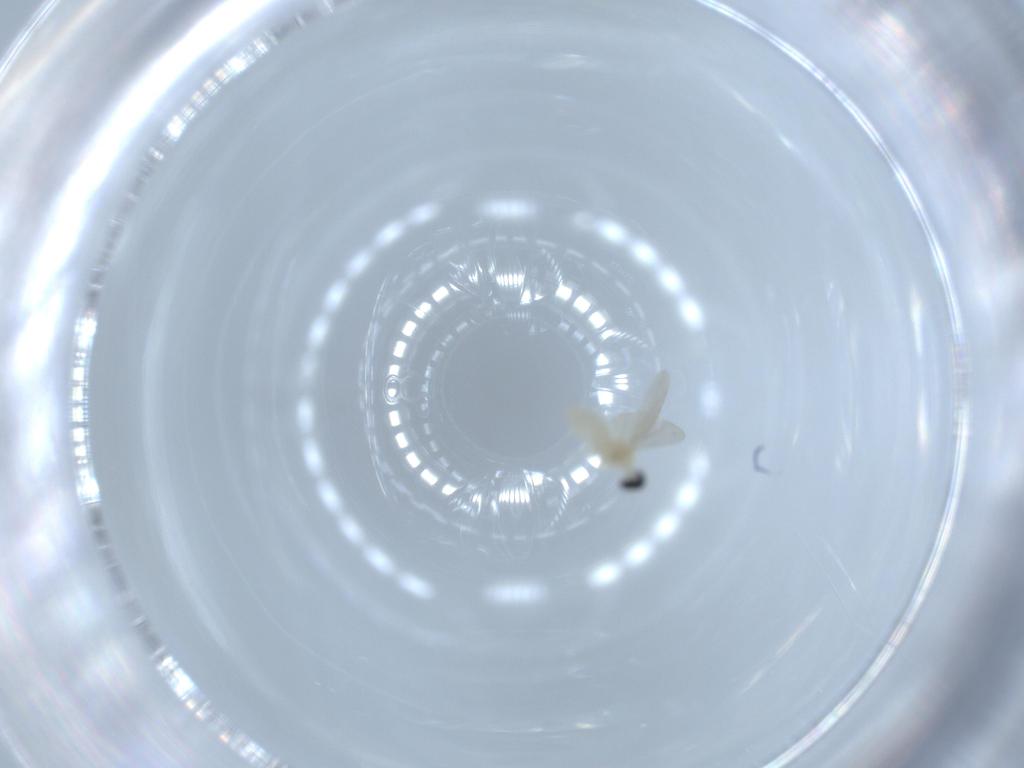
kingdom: Animalia
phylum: Arthropoda
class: Insecta
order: Diptera
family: Cecidomyiidae
